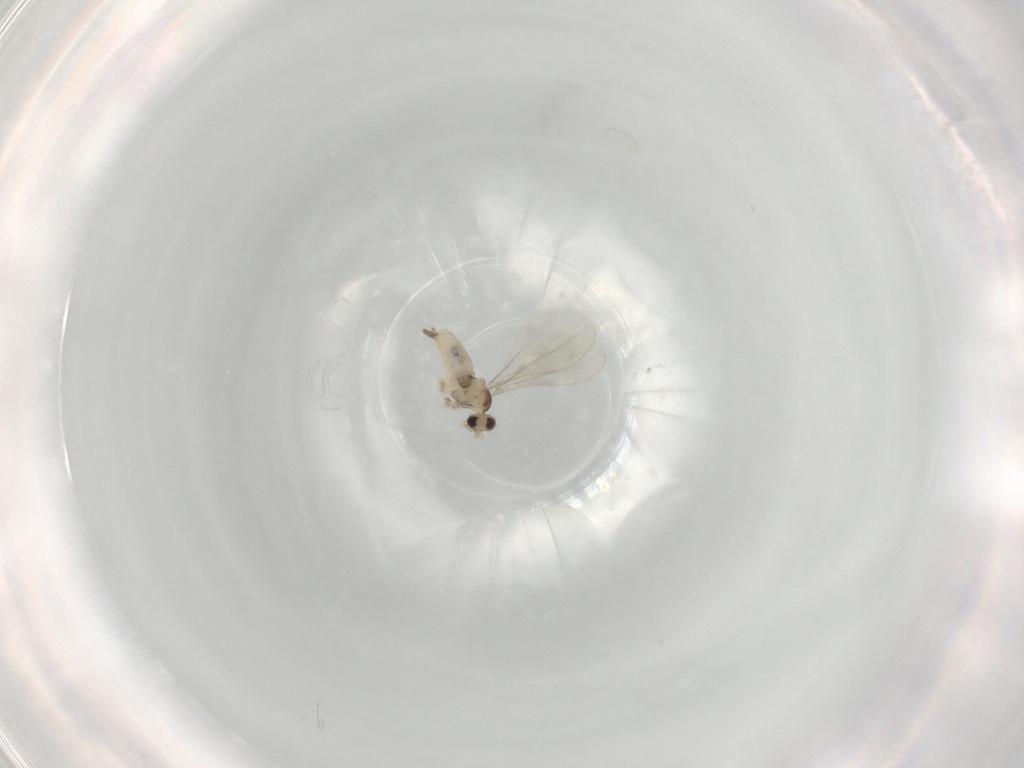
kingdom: Animalia
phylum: Arthropoda
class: Insecta
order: Diptera
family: Cecidomyiidae
